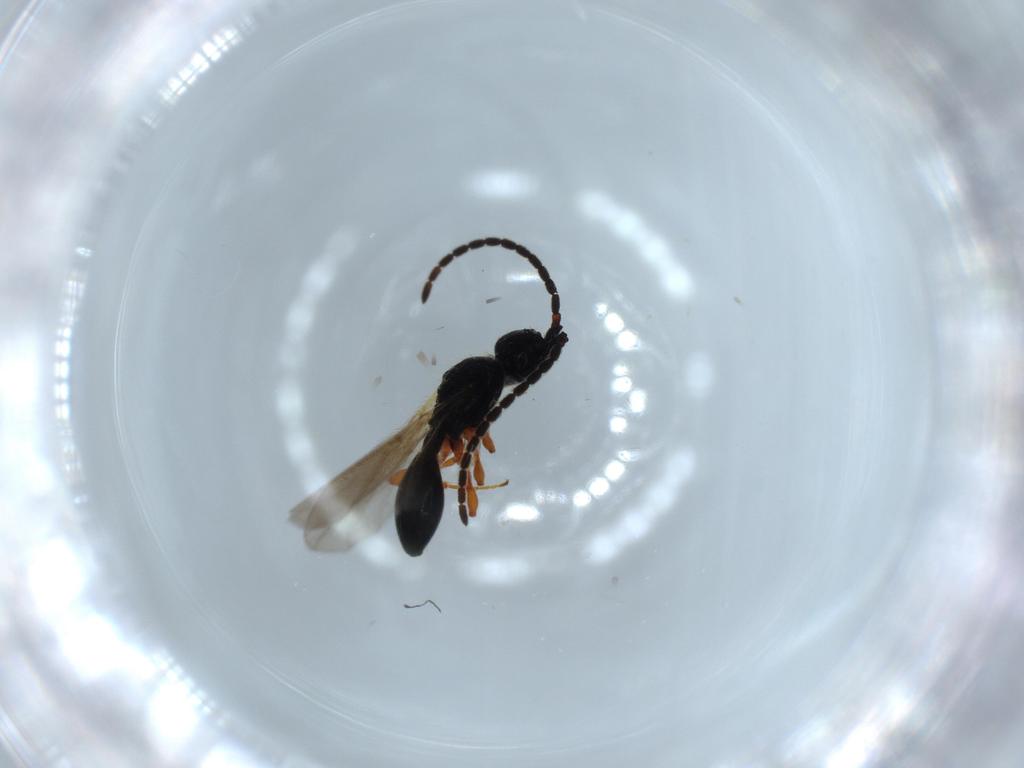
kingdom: Animalia
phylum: Arthropoda
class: Insecta
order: Hymenoptera
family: Diapriidae
